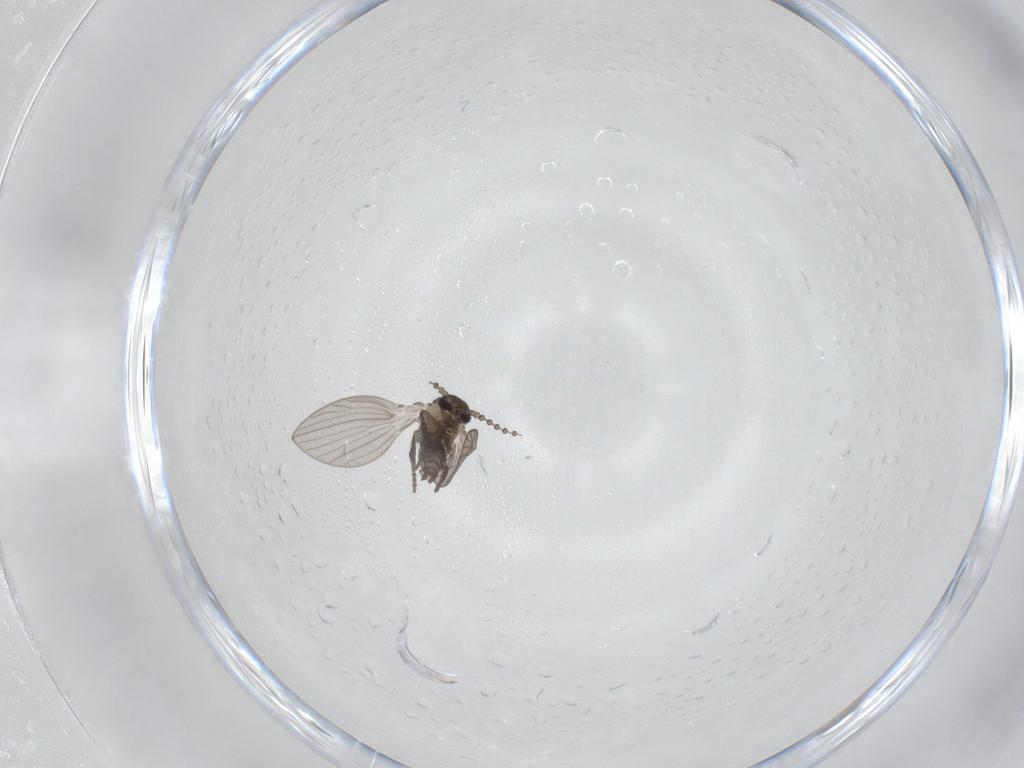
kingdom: Animalia
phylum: Arthropoda
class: Insecta
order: Diptera
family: Psychodidae
